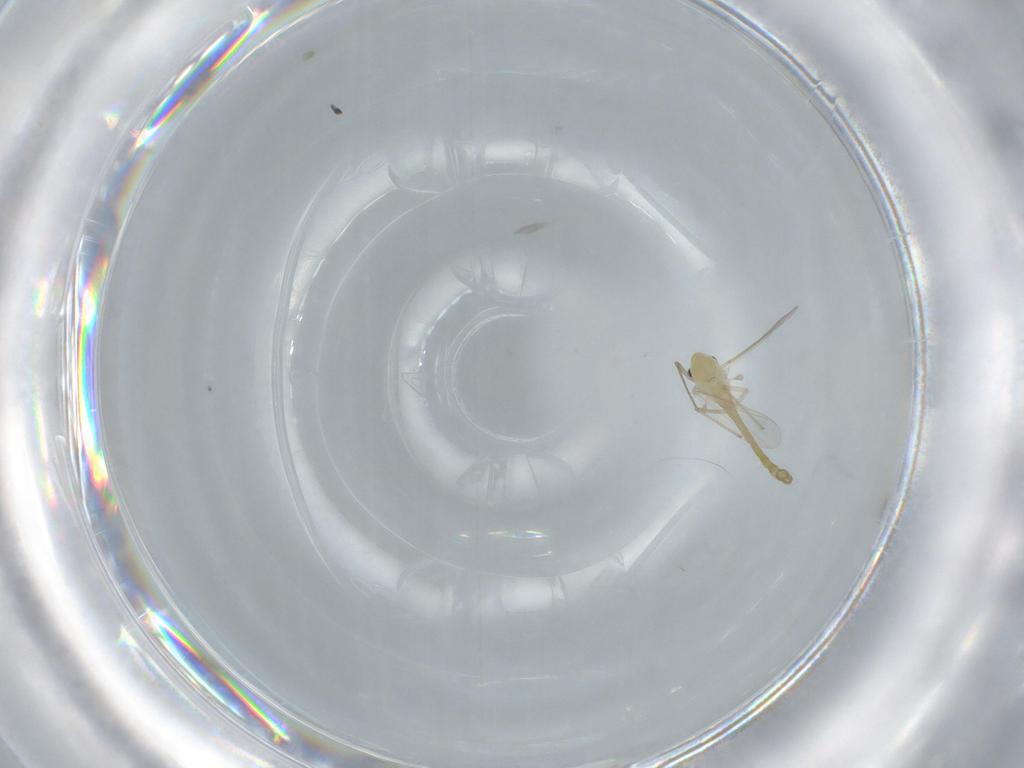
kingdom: Animalia
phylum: Arthropoda
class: Insecta
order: Diptera
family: Chironomidae
